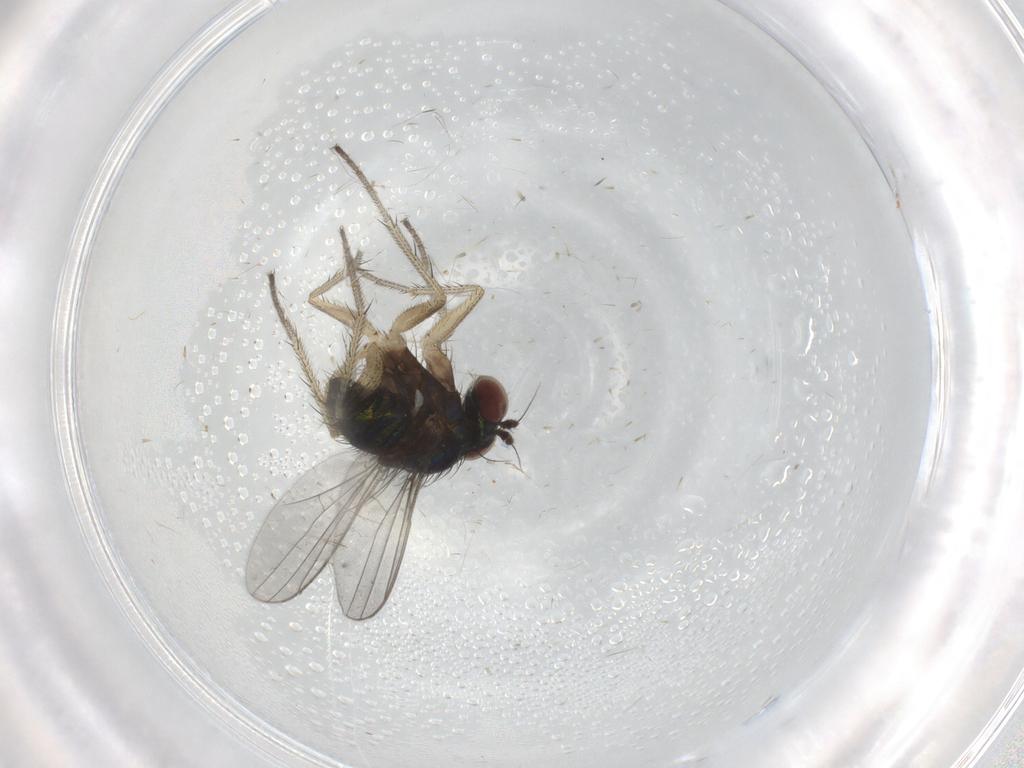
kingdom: Animalia
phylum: Arthropoda
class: Insecta
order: Diptera
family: Dolichopodidae
